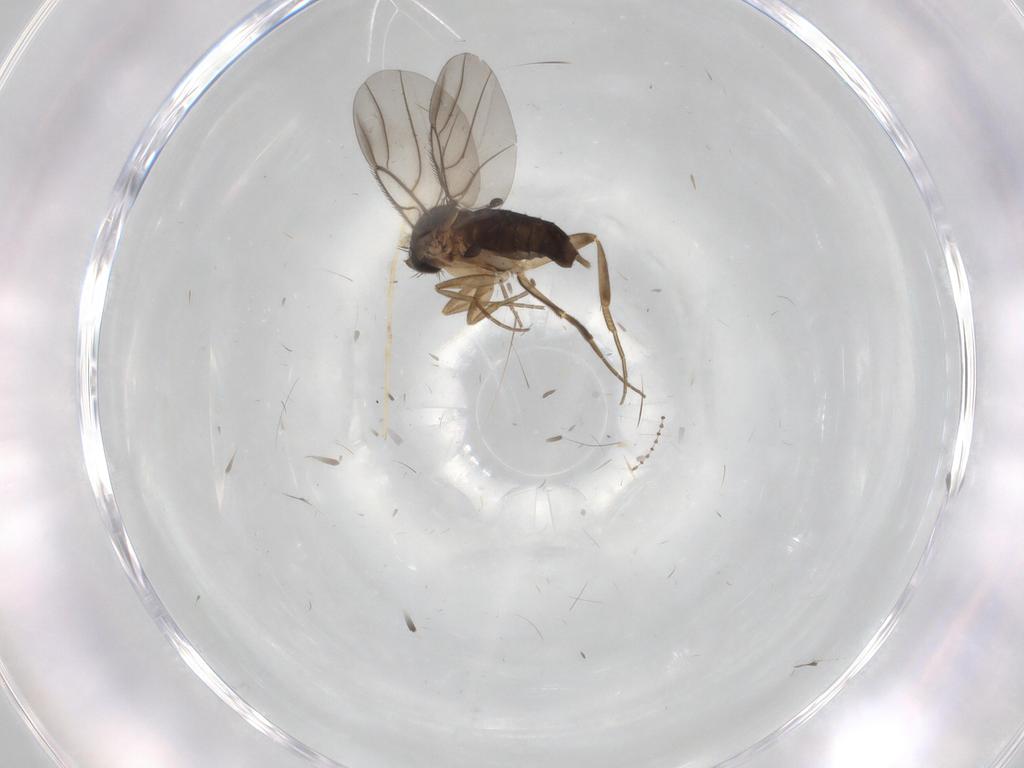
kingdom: Animalia
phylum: Arthropoda
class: Insecta
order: Diptera
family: Chironomidae
